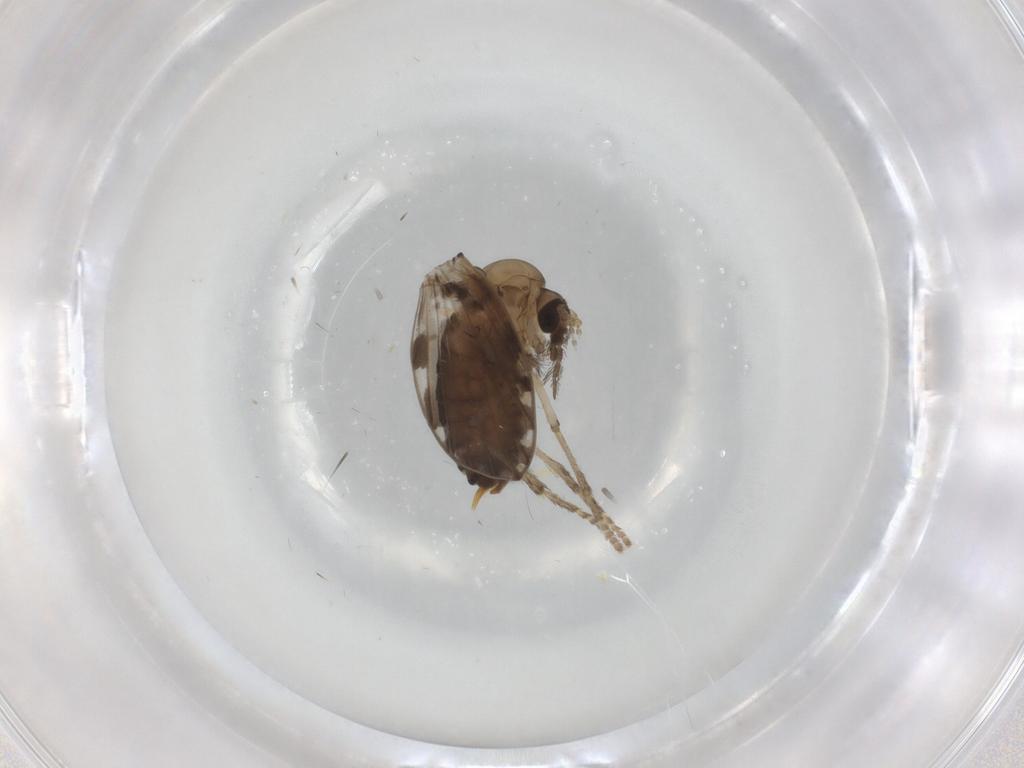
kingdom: Animalia
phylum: Arthropoda
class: Insecta
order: Diptera
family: Psychodidae
